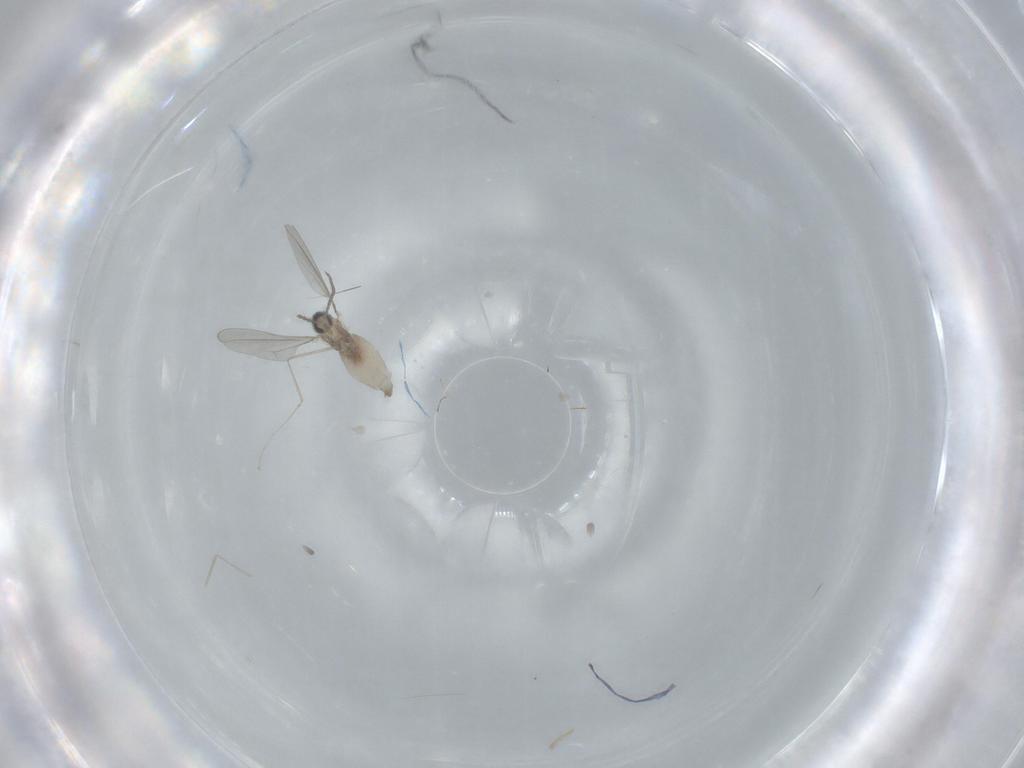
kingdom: Animalia
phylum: Arthropoda
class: Insecta
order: Diptera
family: Cecidomyiidae
